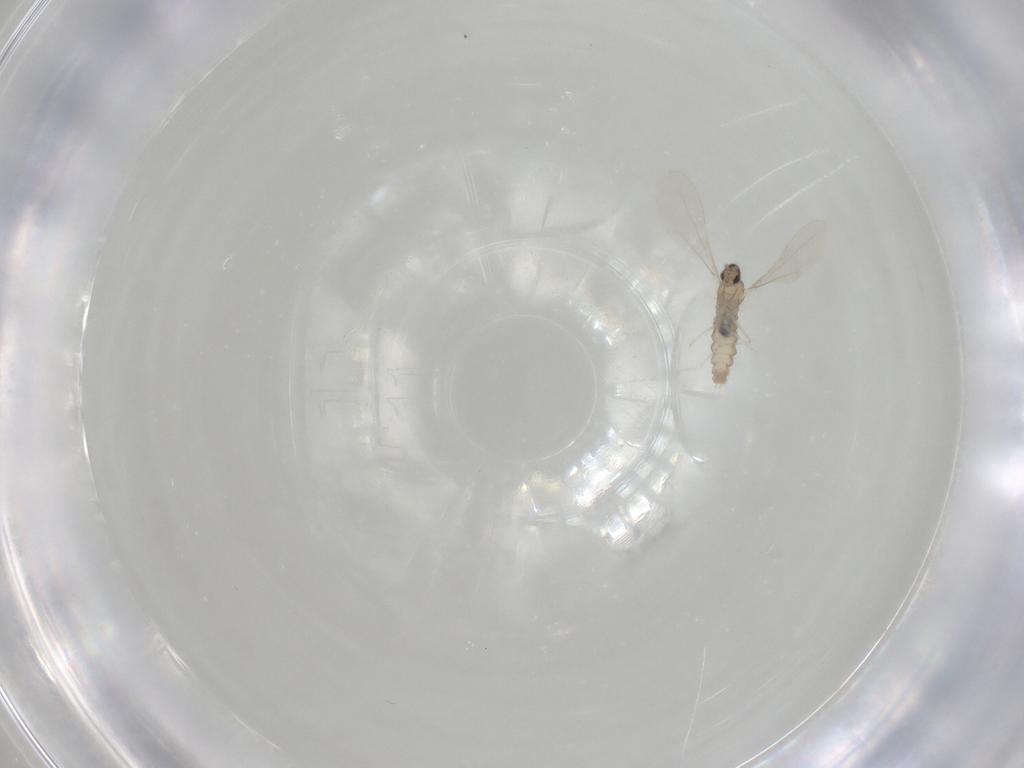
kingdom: Animalia
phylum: Arthropoda
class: Insecta
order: Diptera
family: Cecidomyiidae
